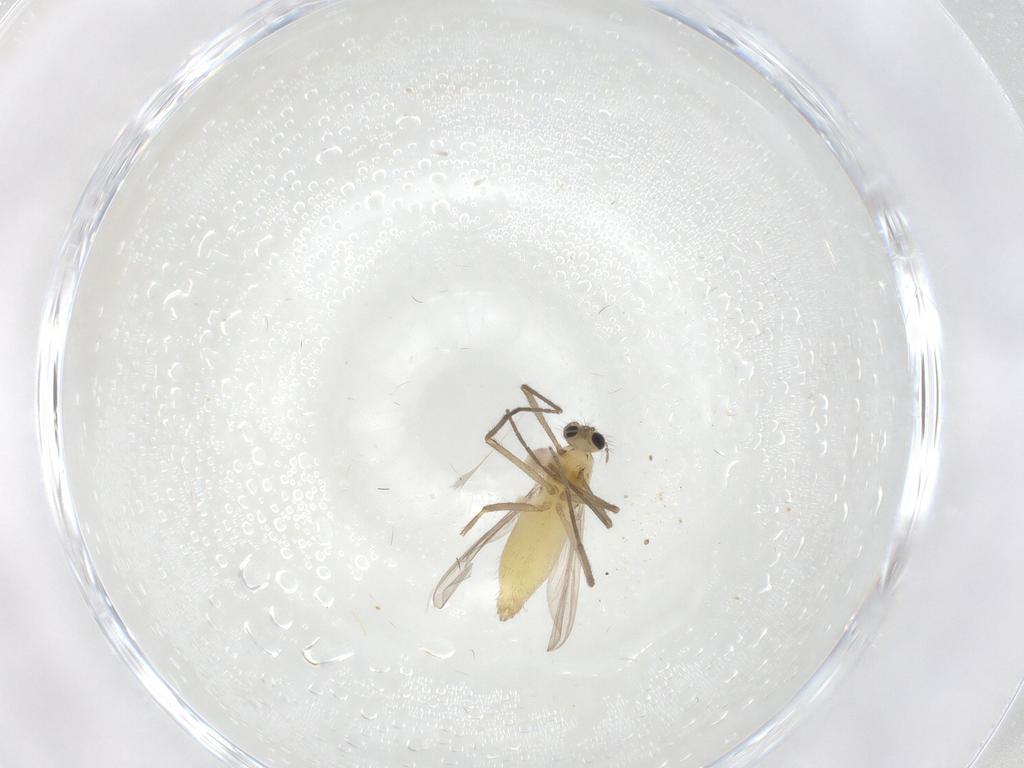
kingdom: Animalia
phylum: Arthropoda
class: Insecta
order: Diptera
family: Chironomidae
